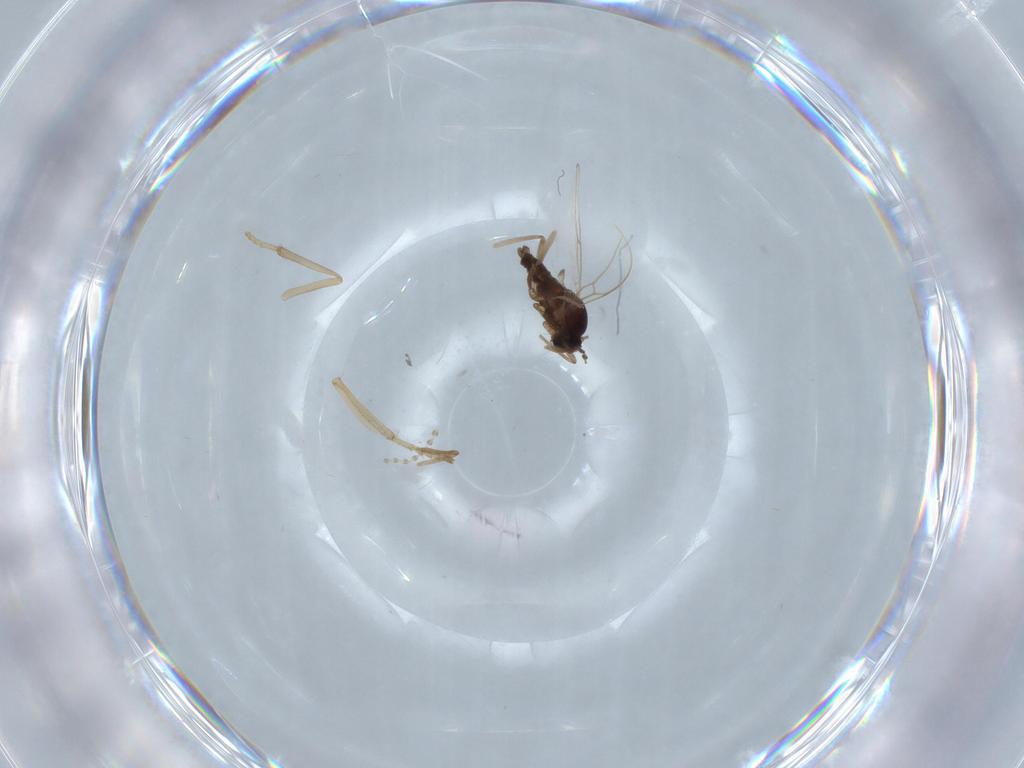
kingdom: Animalia
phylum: Arthropoda
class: Insecta
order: Diptera
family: Cecidomyiidae
